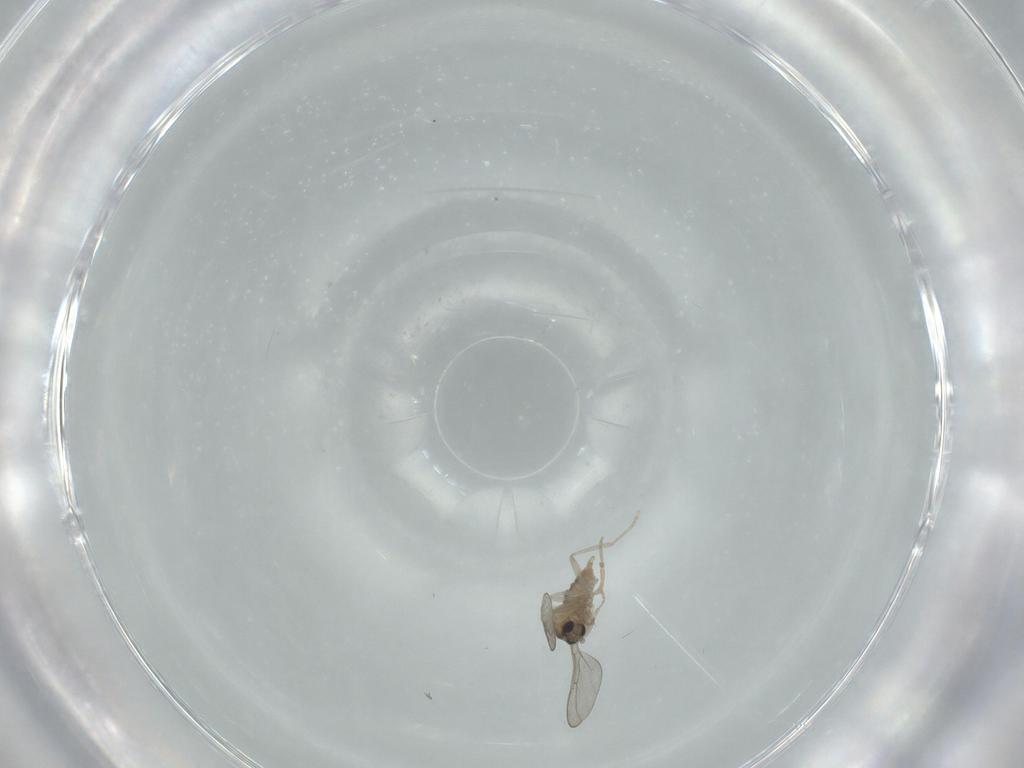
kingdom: Animalia
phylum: Arthropoda
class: Insecta
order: Diptera
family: Cecidomyiidae
